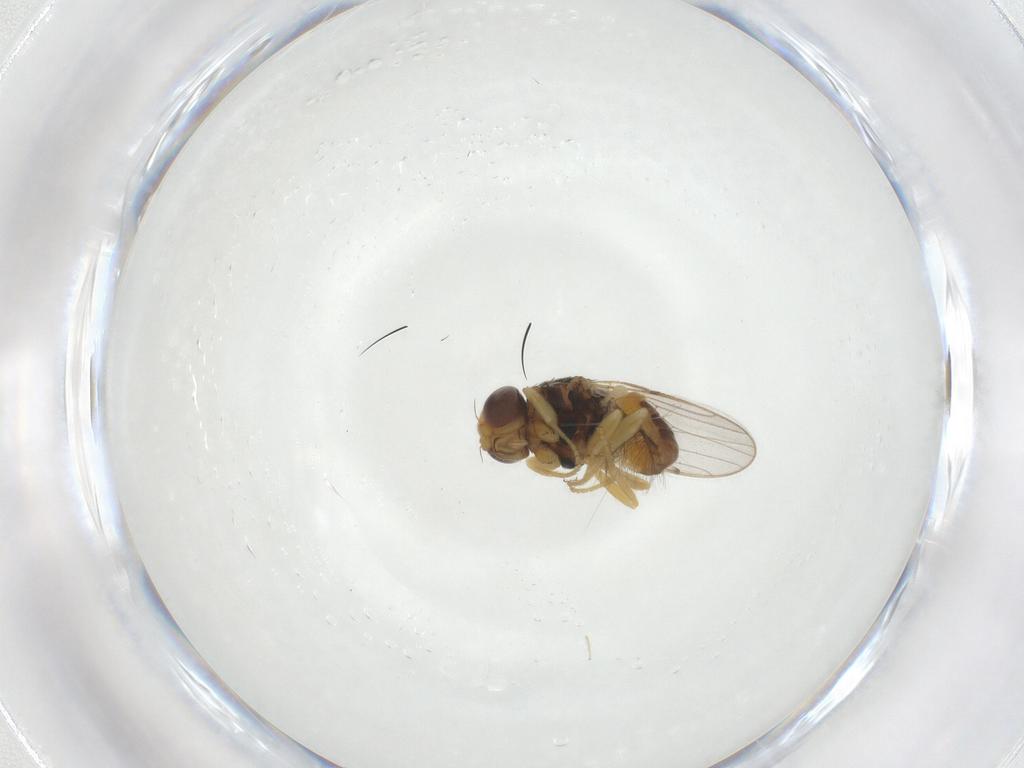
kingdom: Animalia
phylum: Arthropoda
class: Insecta
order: Diptera
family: Chloropidae
